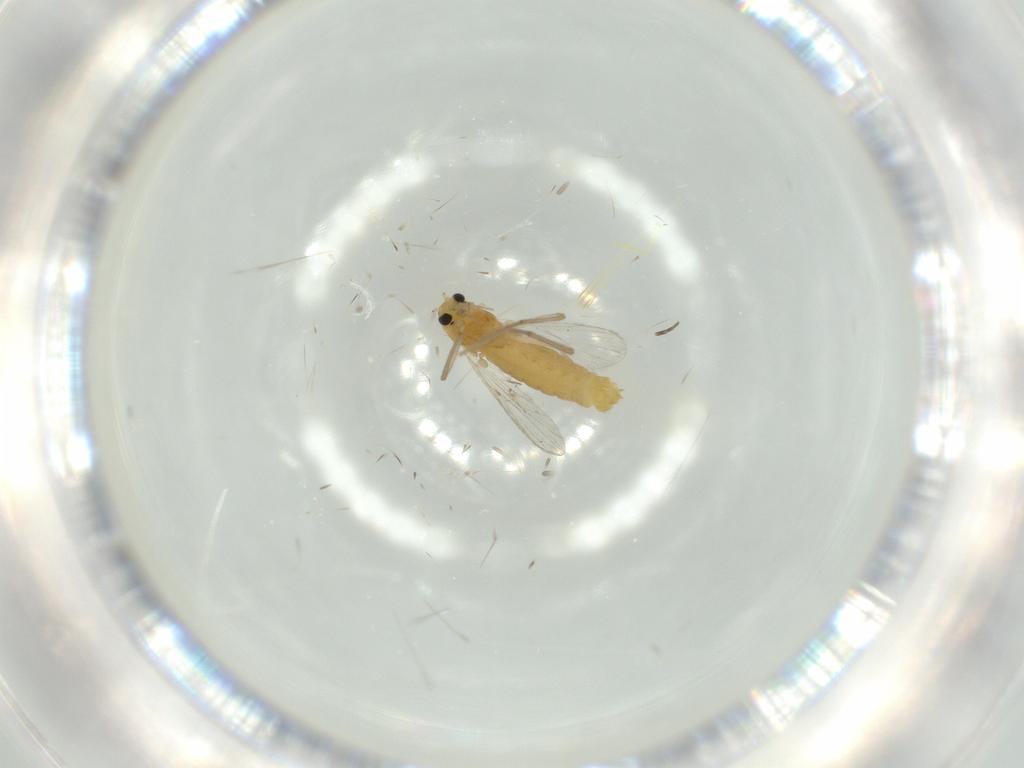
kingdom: Animalia
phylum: Arthropoda
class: Insecta
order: Diptera
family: Chironomidae
